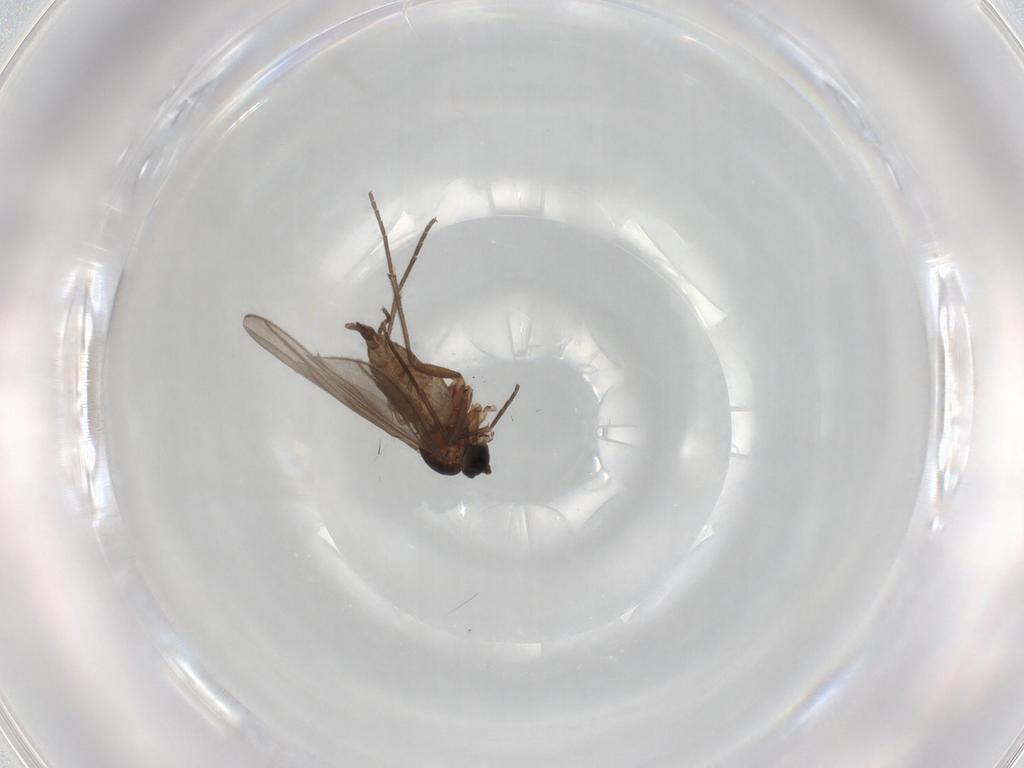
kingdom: Animalia
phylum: Arthropoda
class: Insecta
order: Diptera
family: Sciaridae
